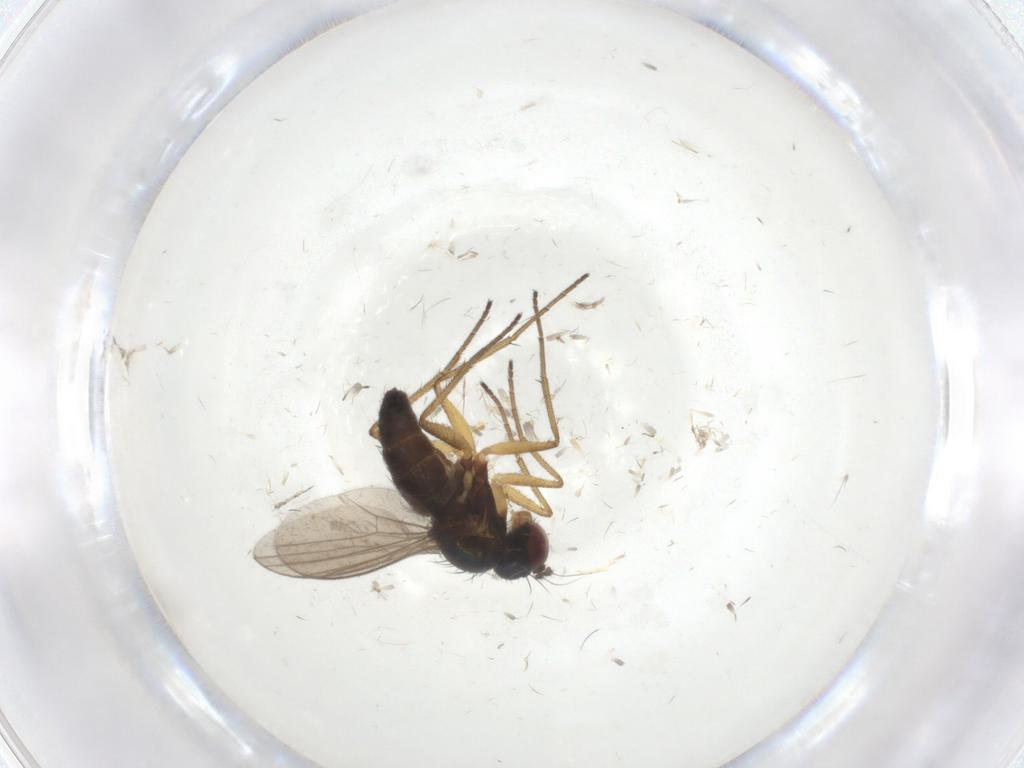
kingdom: Animalia
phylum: Arthropoda
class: Insecta
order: Diptera
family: Dolichopodidae
